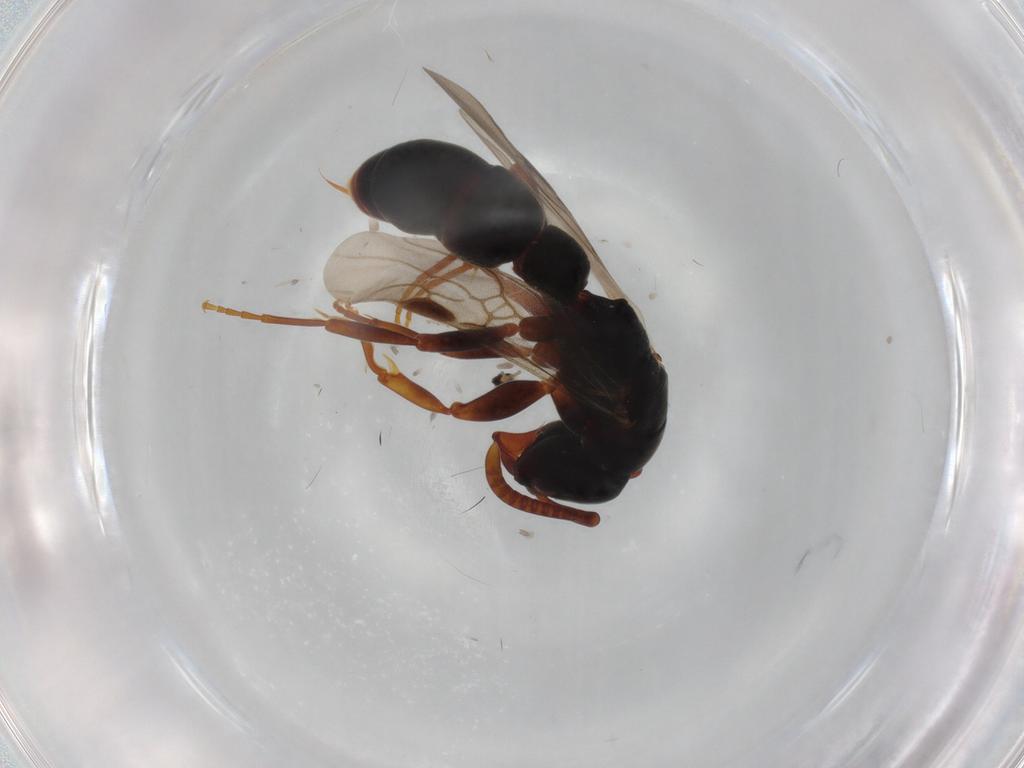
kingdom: Animalia
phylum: Arthropoda
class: Insecta
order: Hymenoptera
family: Formicidae
